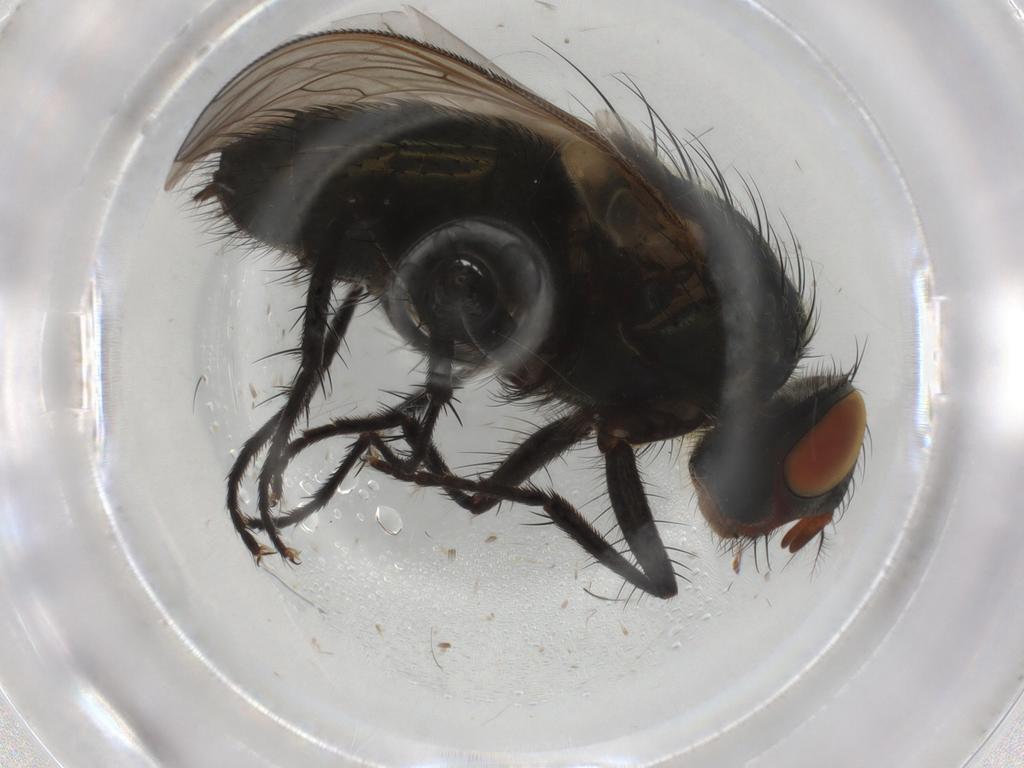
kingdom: Animalia
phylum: Arthropoda
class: Insecta
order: Diptera
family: Polleniidae
